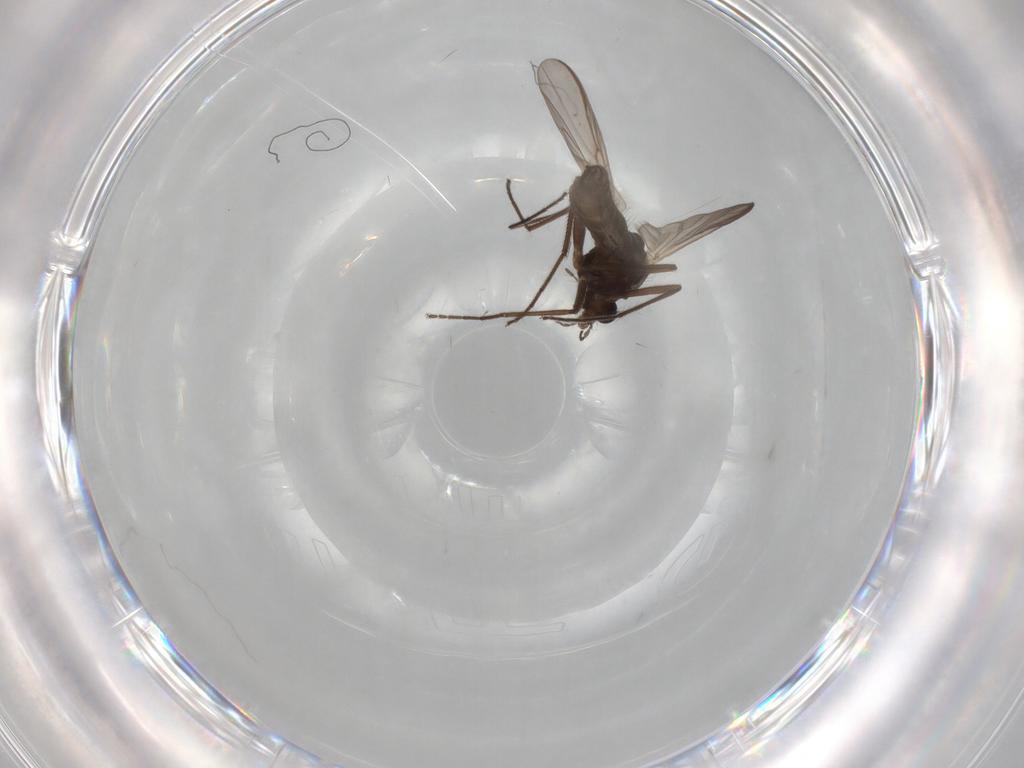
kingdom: Animalia
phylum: Arthropoda
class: Insecta
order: Diptera
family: Chironomidae
